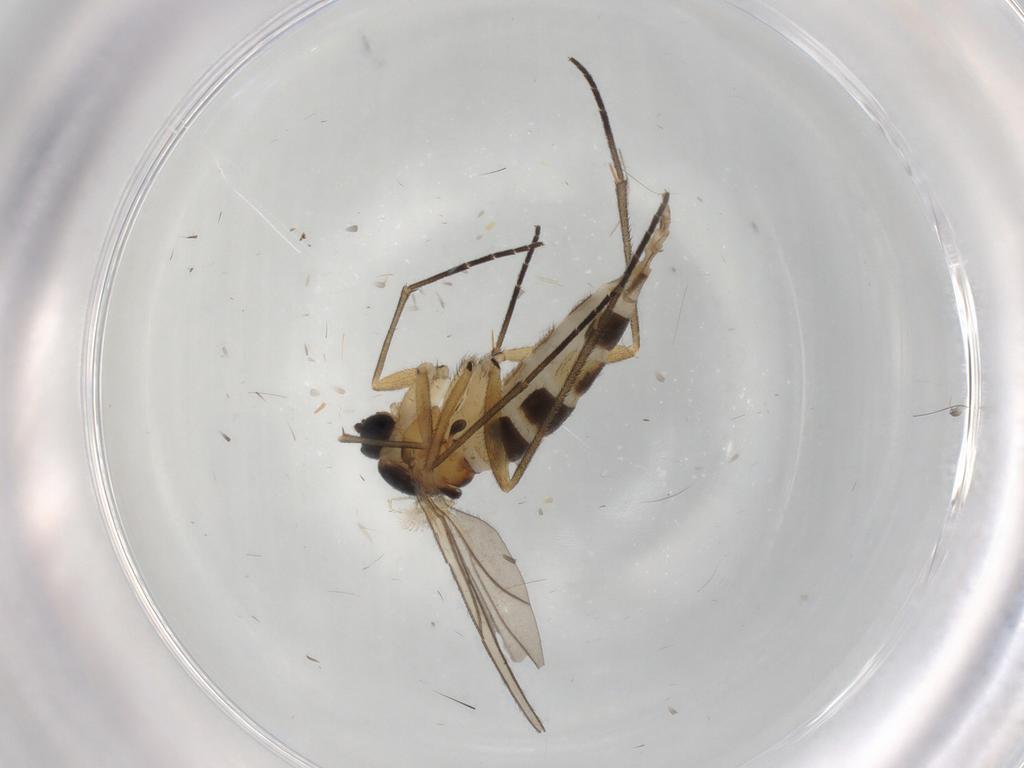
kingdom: Animalia
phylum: Arthropoda
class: Insecta
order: Diptera
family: Sciaridae
